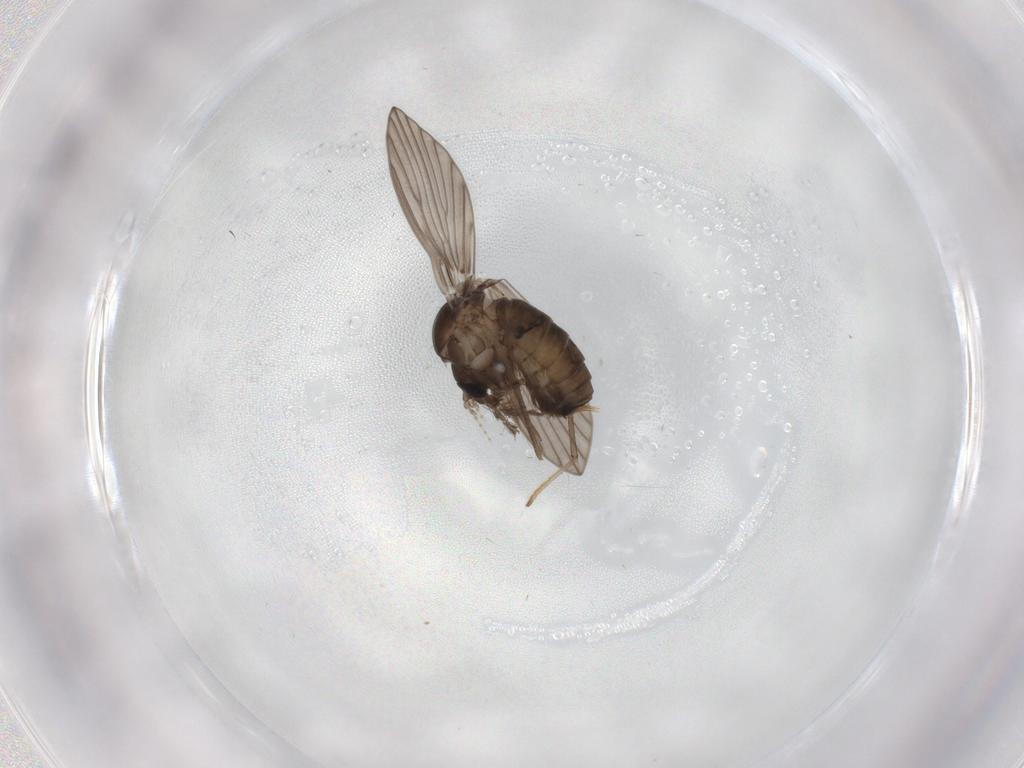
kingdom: Animalia
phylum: Arthropoda
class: Insecta
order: Diptera
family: Psychodidae
